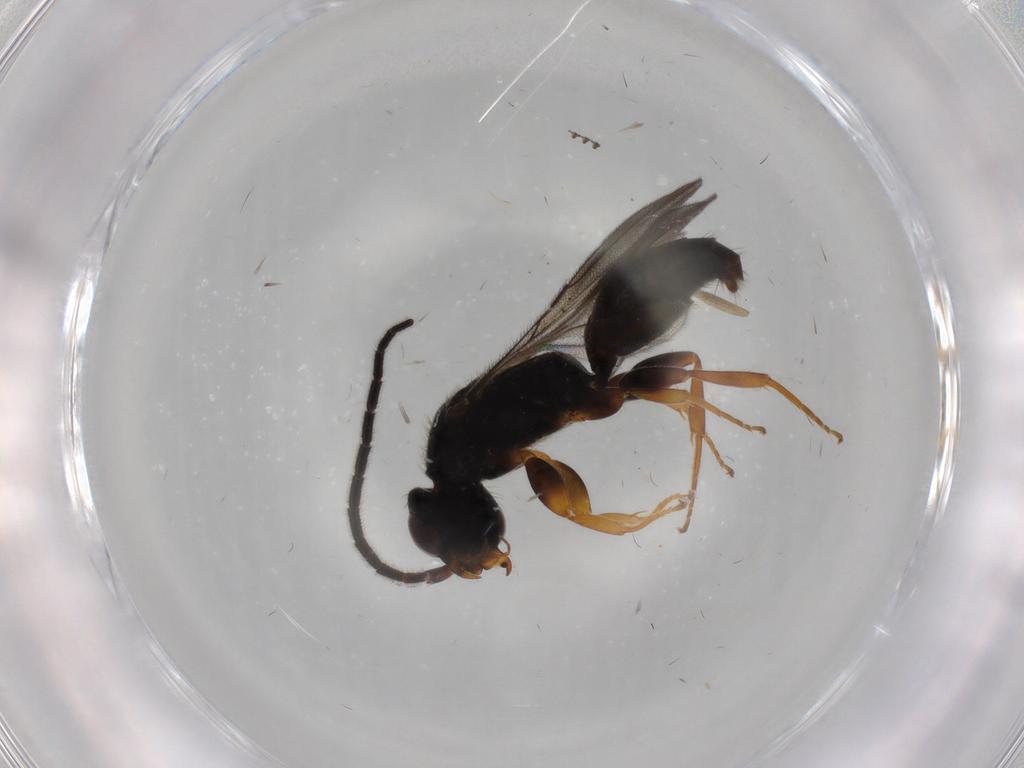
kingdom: Animalia
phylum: Arthropoda
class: Insecta
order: Hymenoptera
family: Bethylidae
